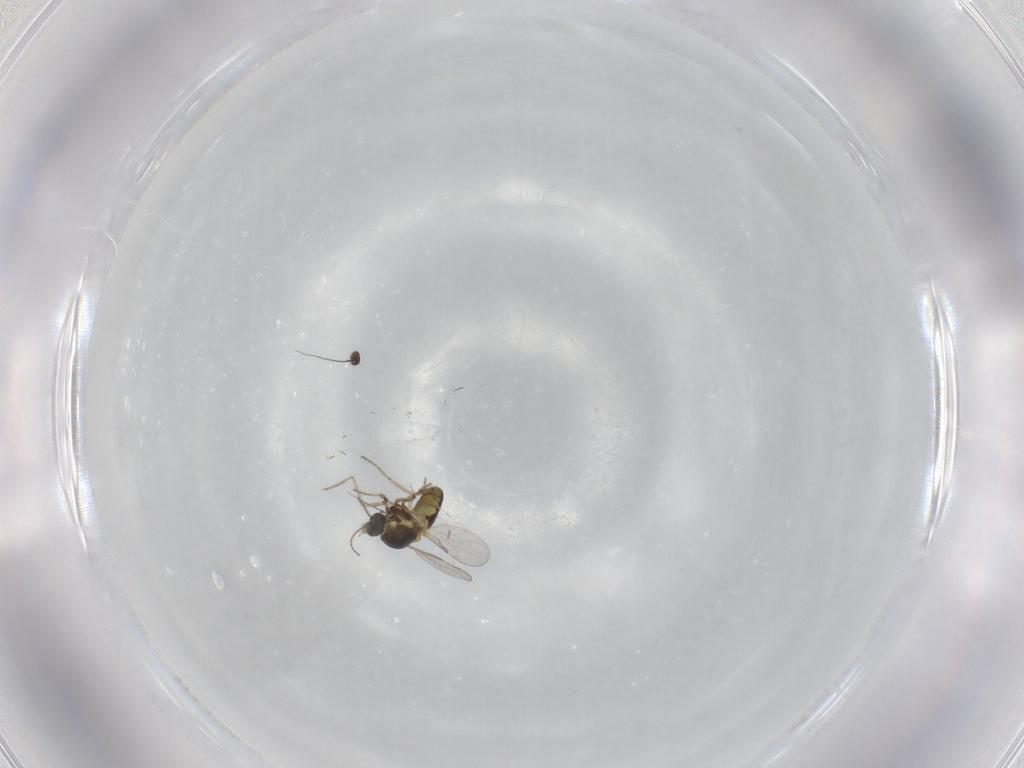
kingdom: Animalia
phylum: Arthropoda
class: Insecta
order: Diptera
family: Ceratopogonidae
